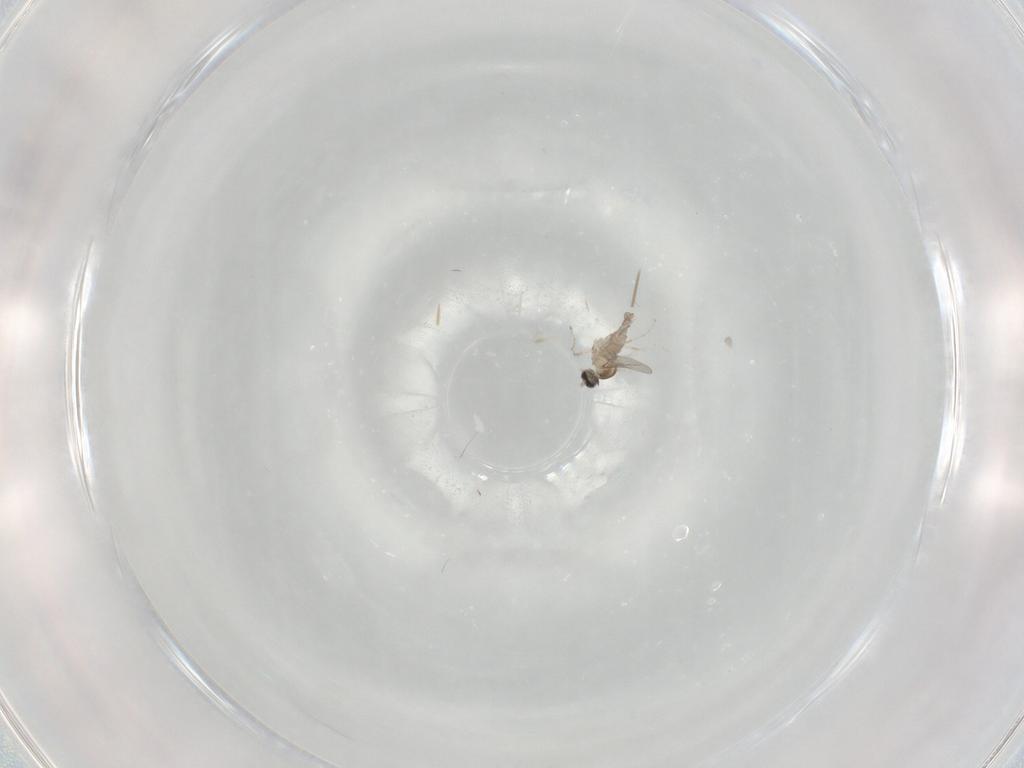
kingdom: Animalia
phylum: Arthropoda
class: Insecta
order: Diptera
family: Cecidomyiidae
